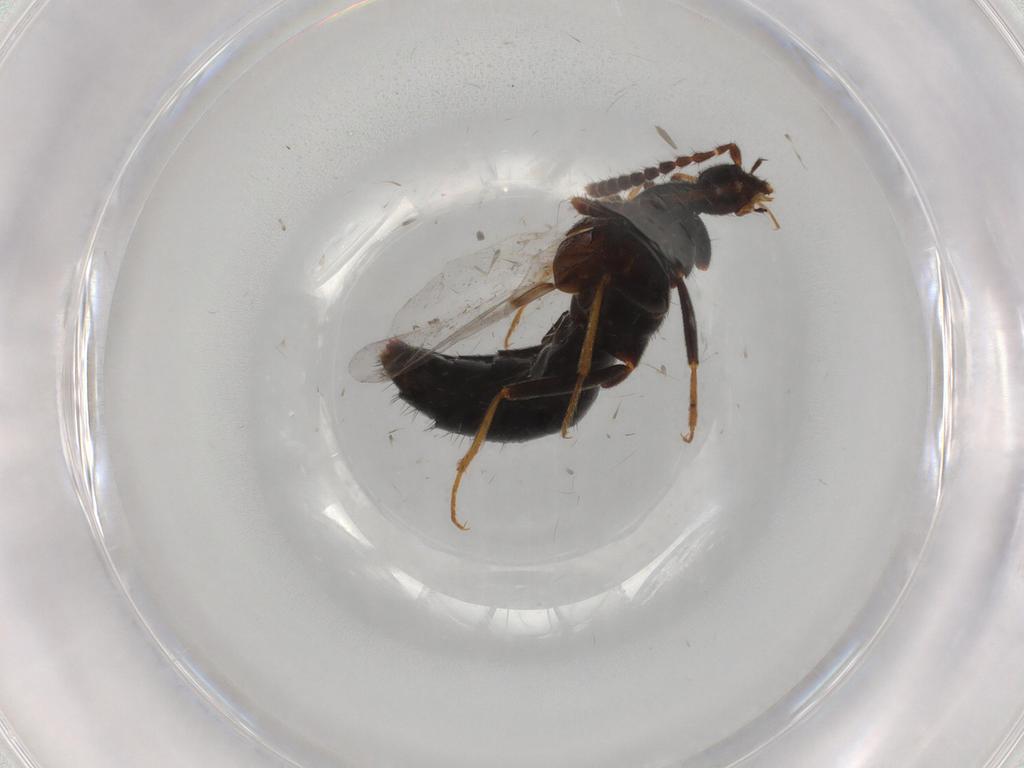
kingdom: Animalia
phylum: Arthropoda
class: Insecta
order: Coleoptera
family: Staphylinidae
